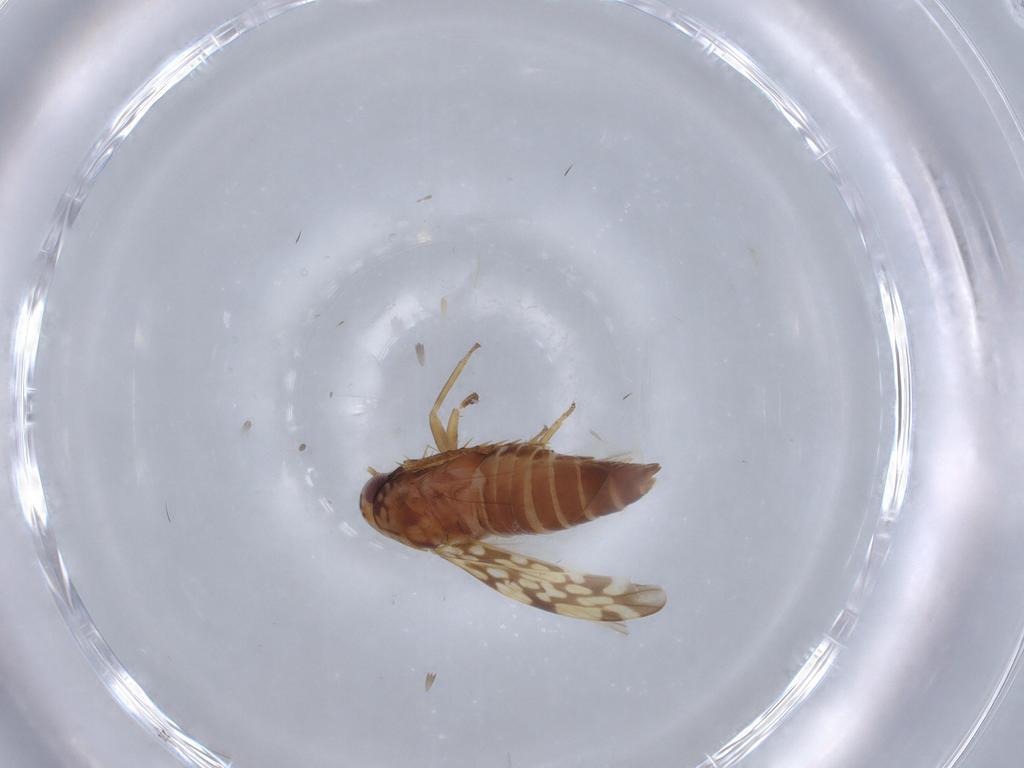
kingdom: Animalia
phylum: Arthropoda
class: Insecta
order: Hemiptera
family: Cicadellidae
